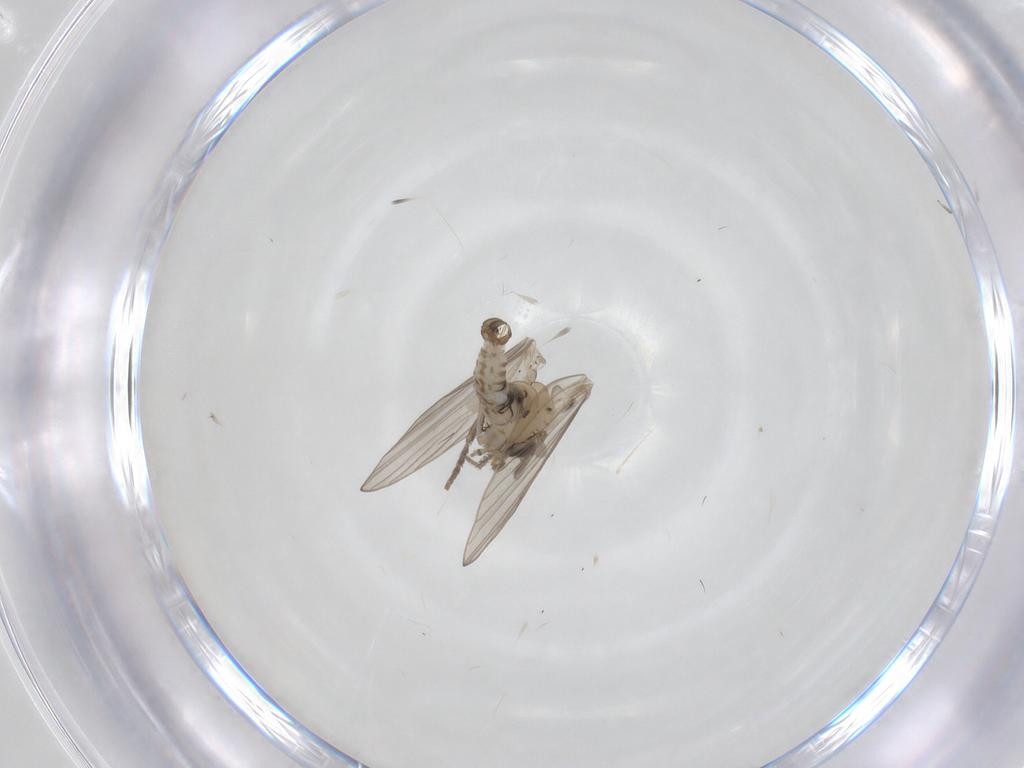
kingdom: Animalia
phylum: Arthropoda
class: Insecta
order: Diptera
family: Psychodidae
